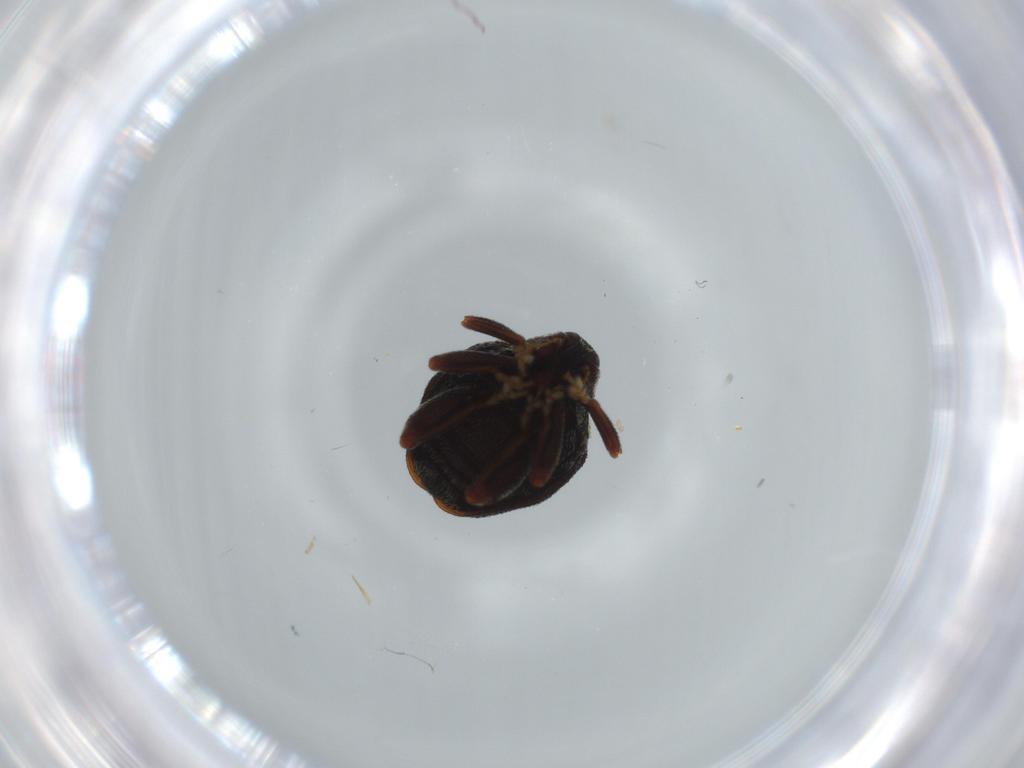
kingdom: Animalia
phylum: Arthropoda
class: Insecta
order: Coleoptera
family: Curculionidae
